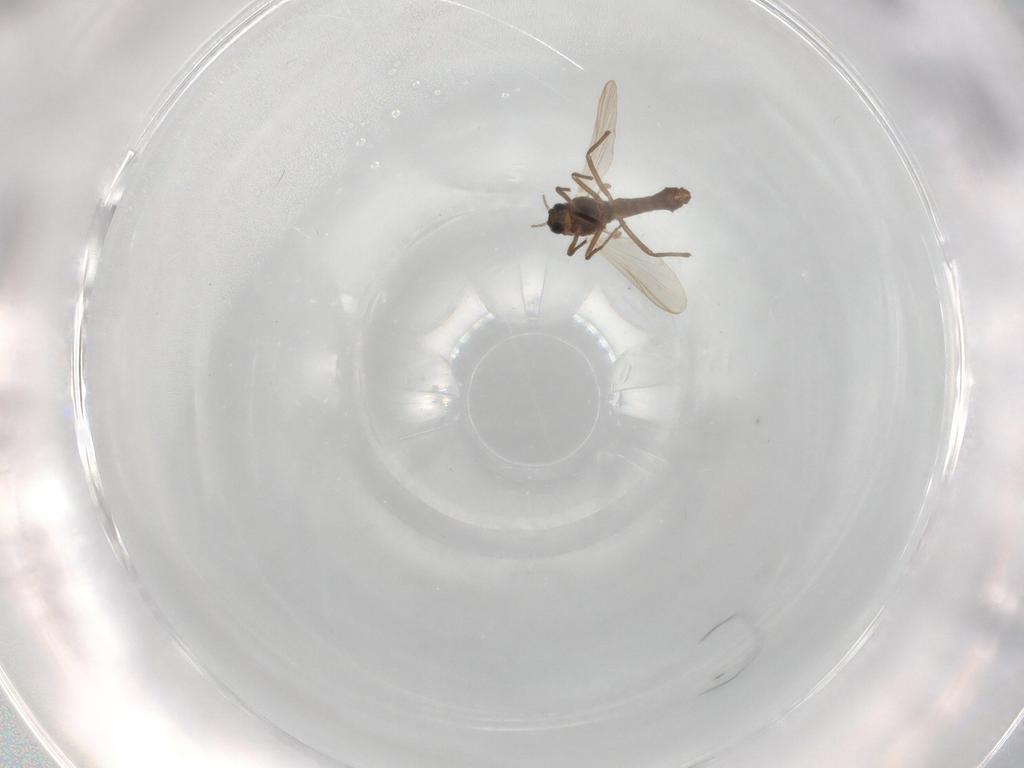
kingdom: Animalia
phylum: Arthropoda
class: Insecta
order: Diptera
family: Chironomidae
